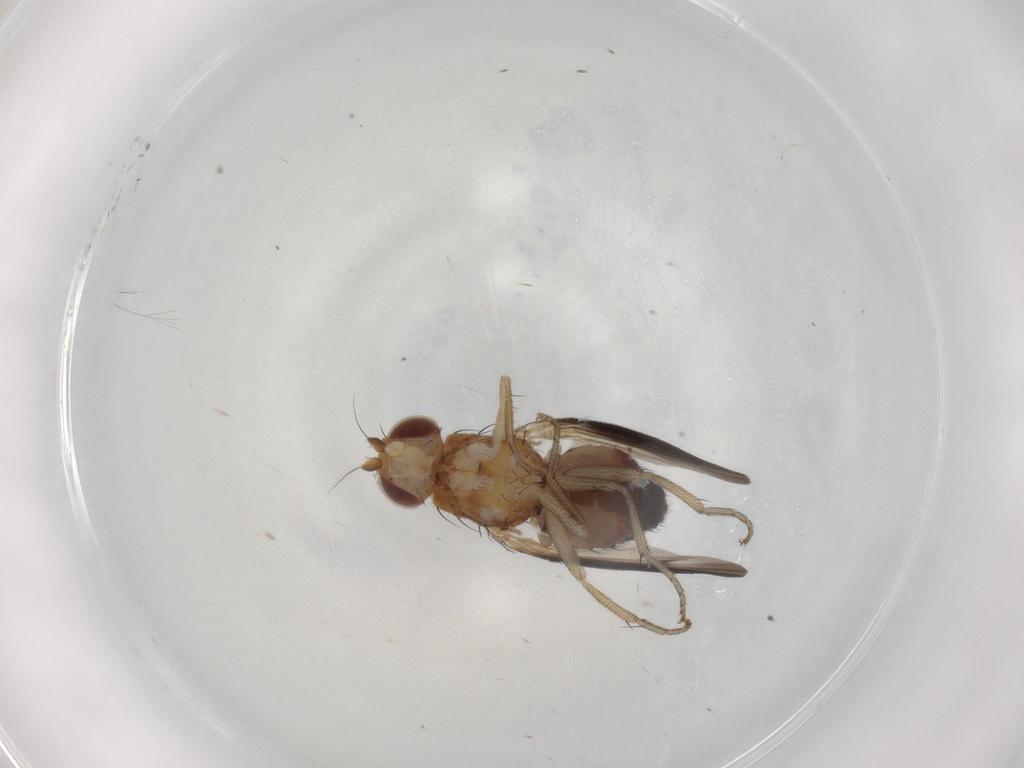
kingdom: Animalia
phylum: Arthropoda
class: Insecta
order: Diptera
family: Heleomyzidae
